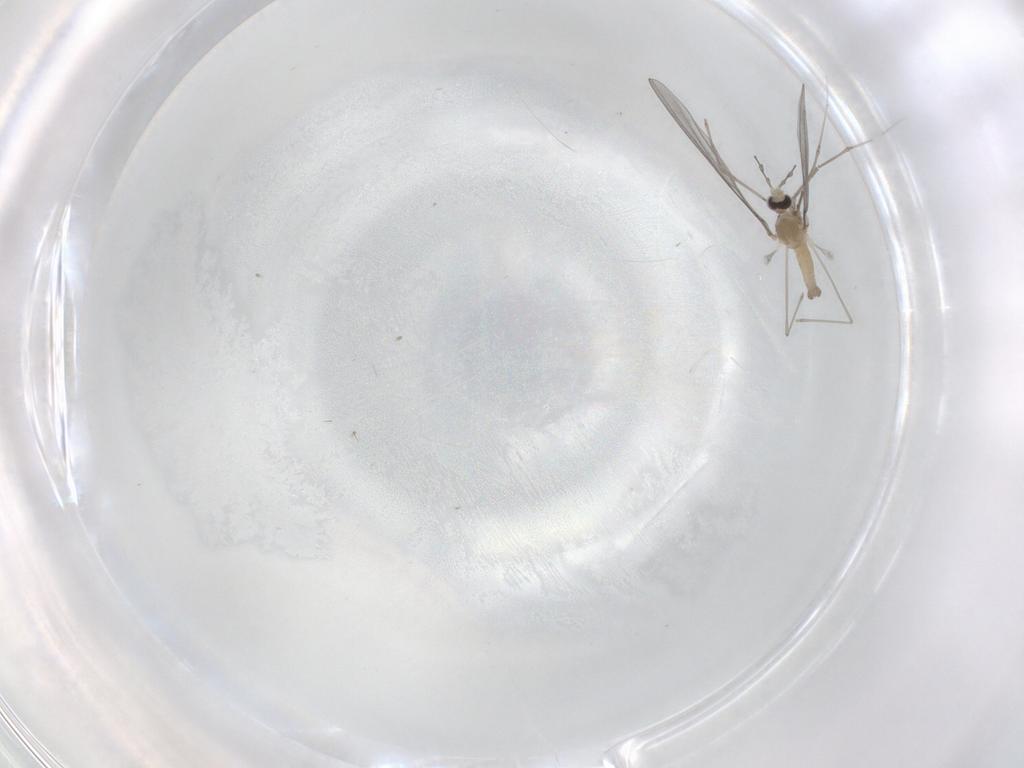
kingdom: Animalia
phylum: Arthropoda
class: Insecta
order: Diptera
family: Cecidomyiidae
